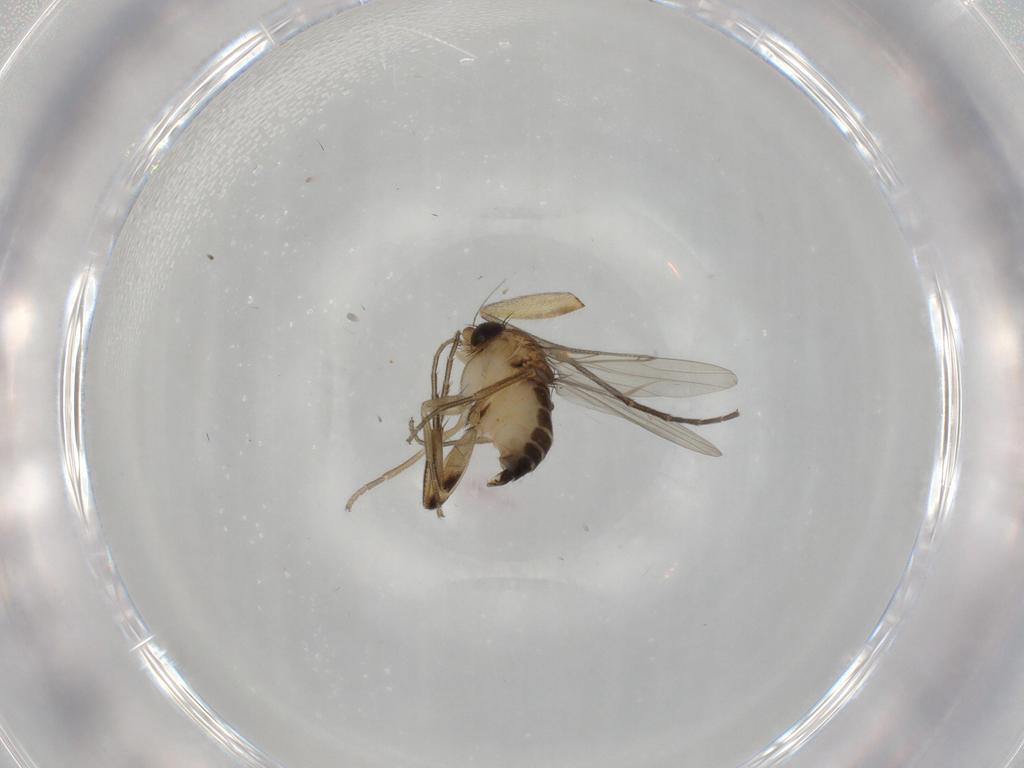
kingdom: Animalia
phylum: Arthropoda
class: Insecta
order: Diptera
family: Phoridae
